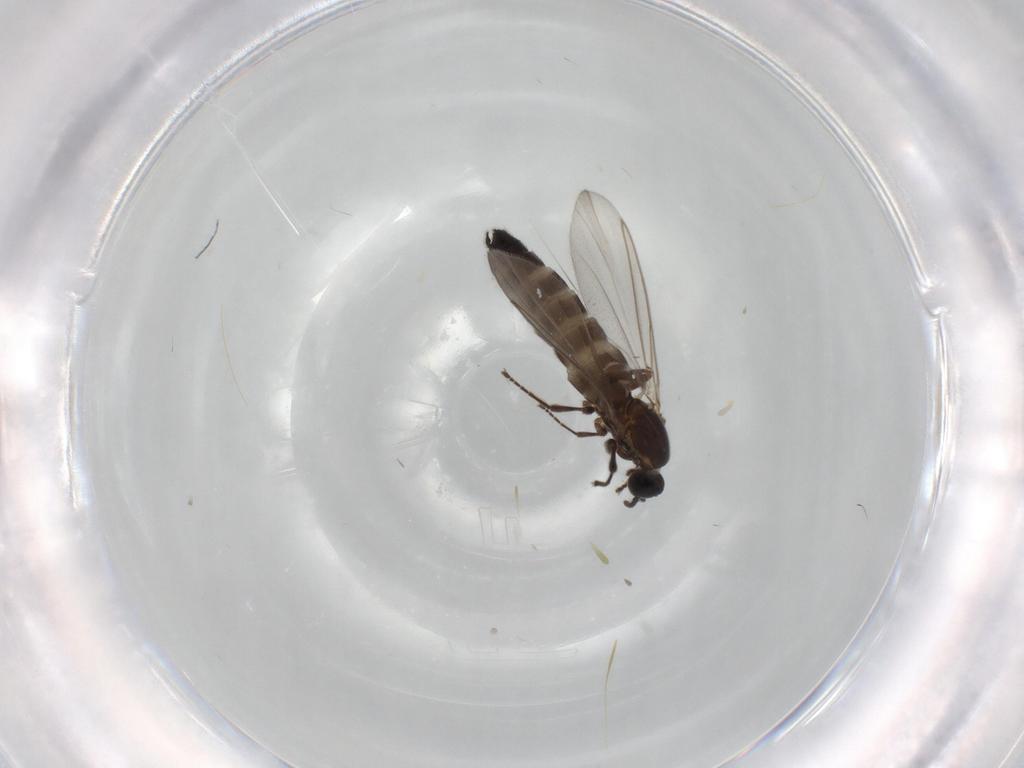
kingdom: Animalia
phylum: Arthropoda
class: Insecta
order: Diptera
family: Scatopsidae
